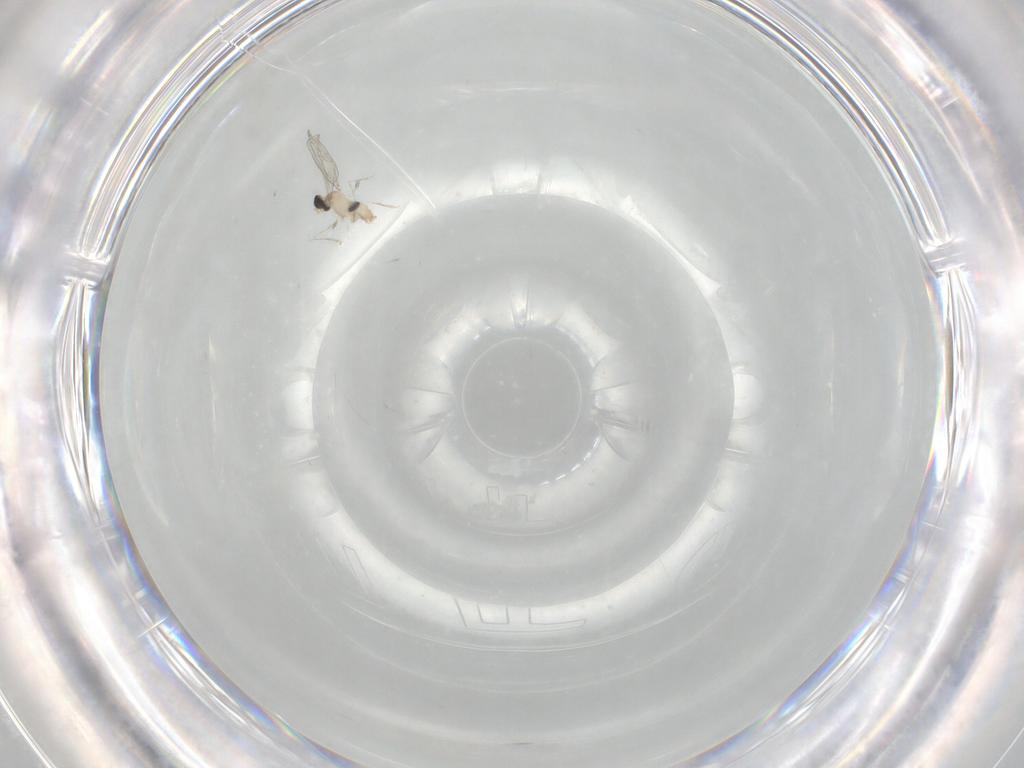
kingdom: Animalia
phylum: Arthropoda
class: Insecta
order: Diptera
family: Cecidomyiidae
